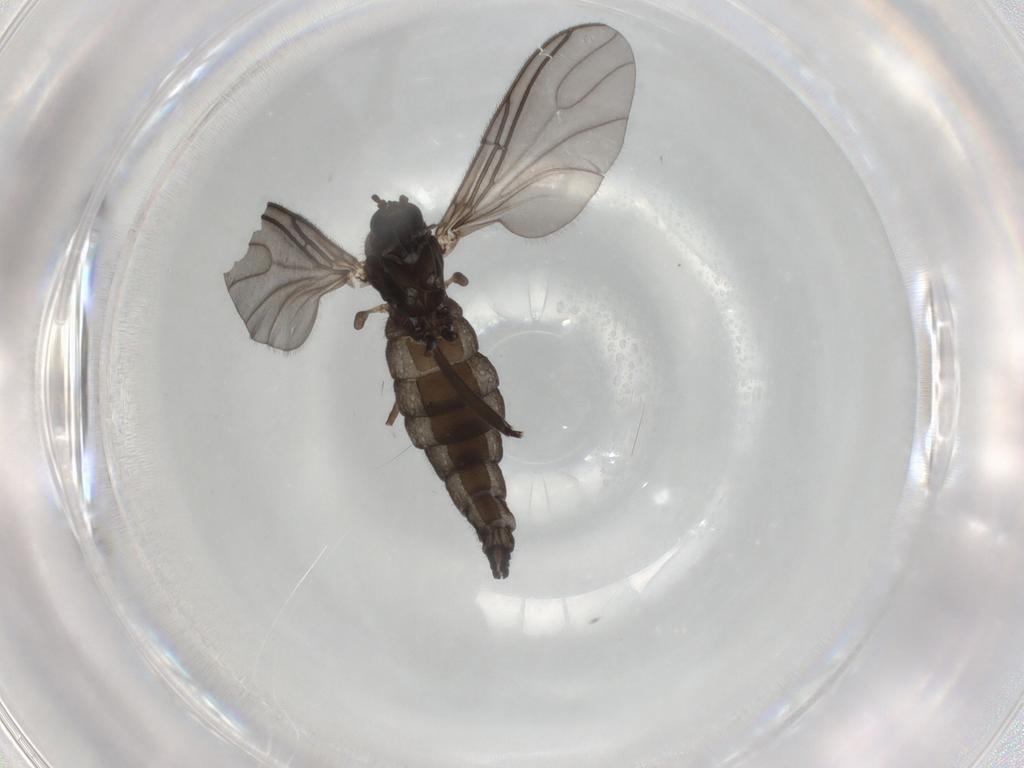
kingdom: Animalia
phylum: Arthropoda
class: Insecta
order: Diptera
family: Sciaridae
